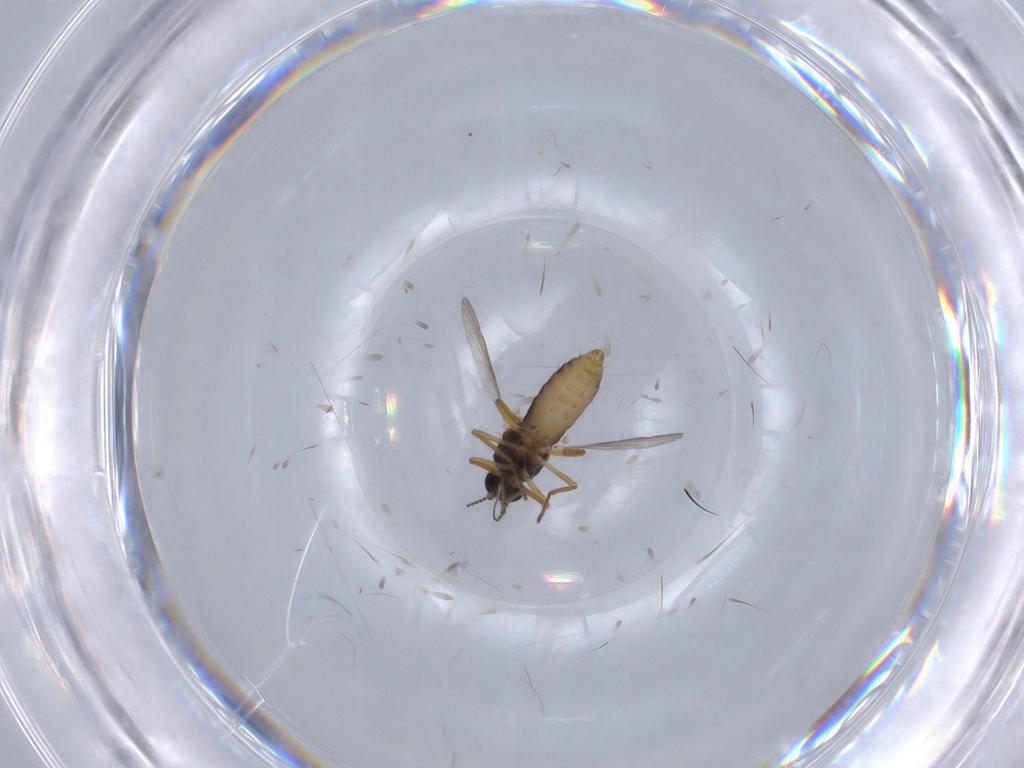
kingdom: Animalia
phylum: Arthropoda
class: Insecta
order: Diptera
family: Ceratopogonidae
